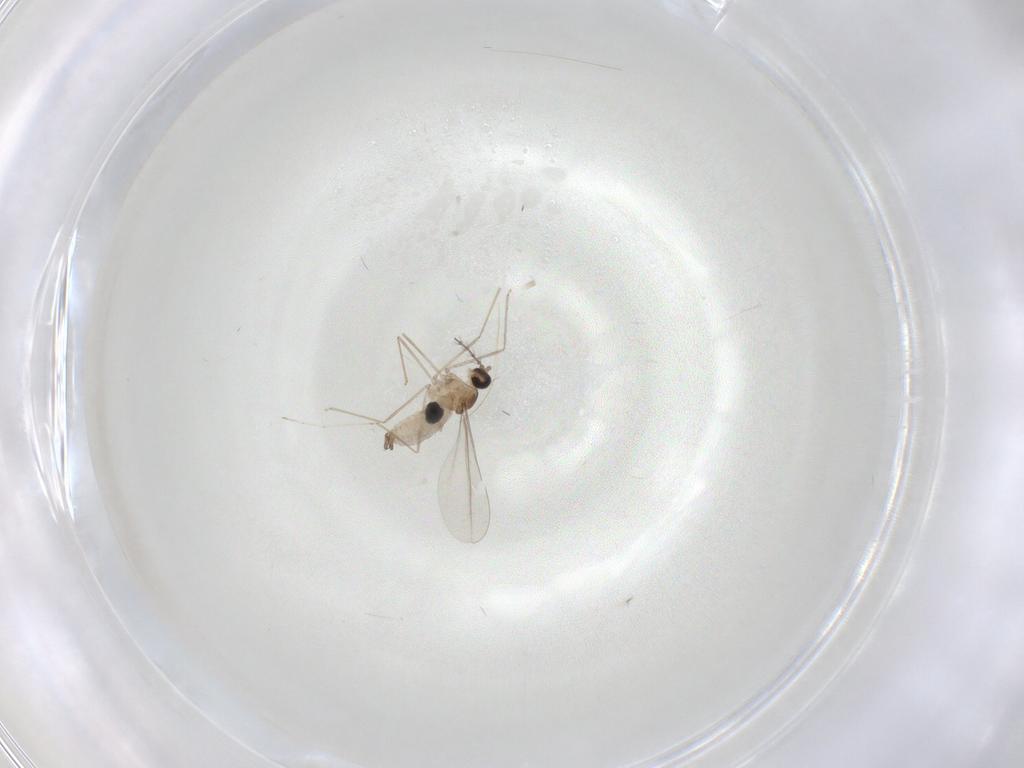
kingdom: Animalia
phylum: Arthropoda
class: Insecta
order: Diptera
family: Cecidomyiidae
